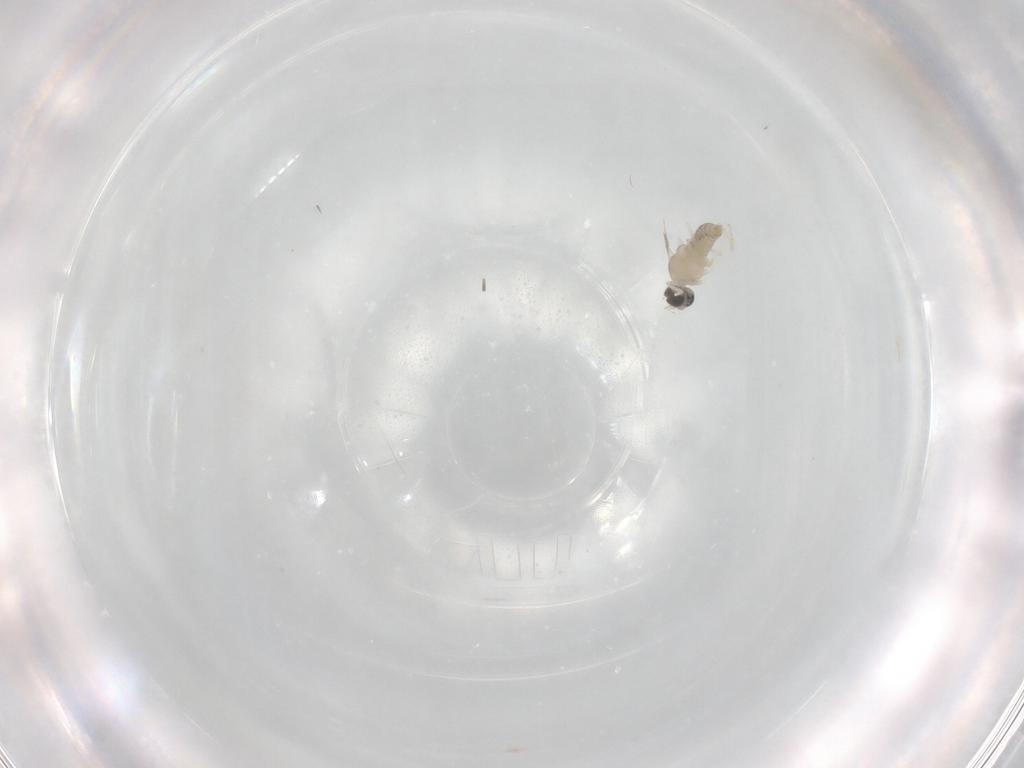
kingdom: Animalia
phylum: Arthropoda
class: Insecta
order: Diptera
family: Cecidomyiidae
